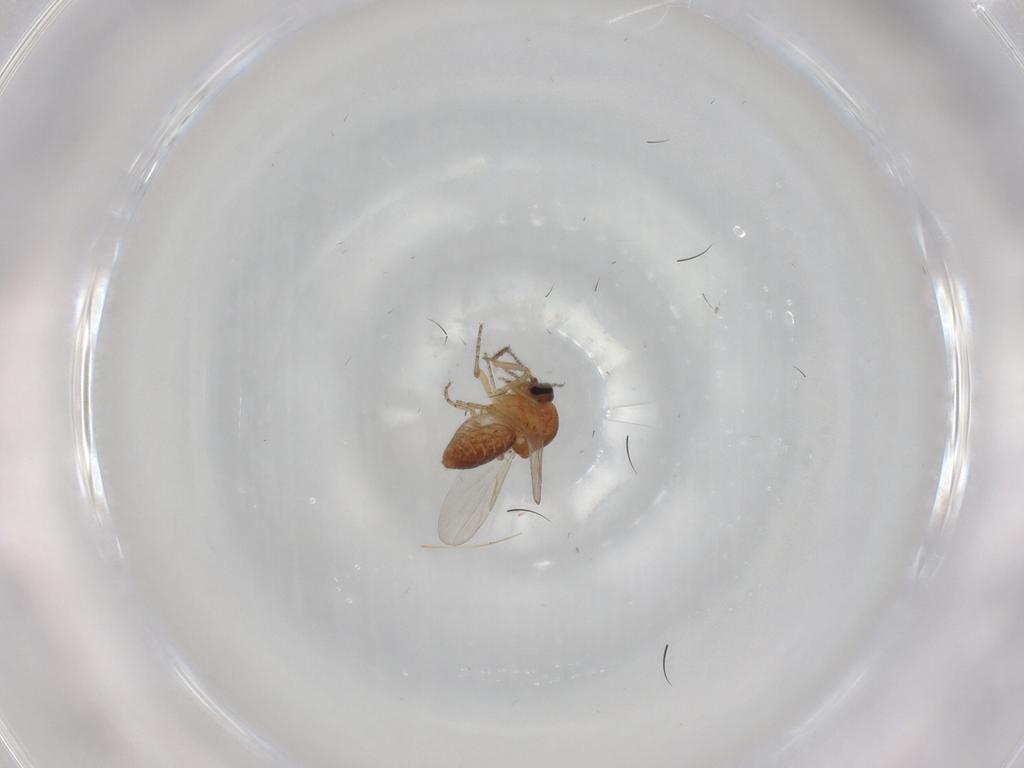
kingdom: Animalia
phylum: Arthropoda
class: Insecta
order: Diptera
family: Ceratopogonidae
